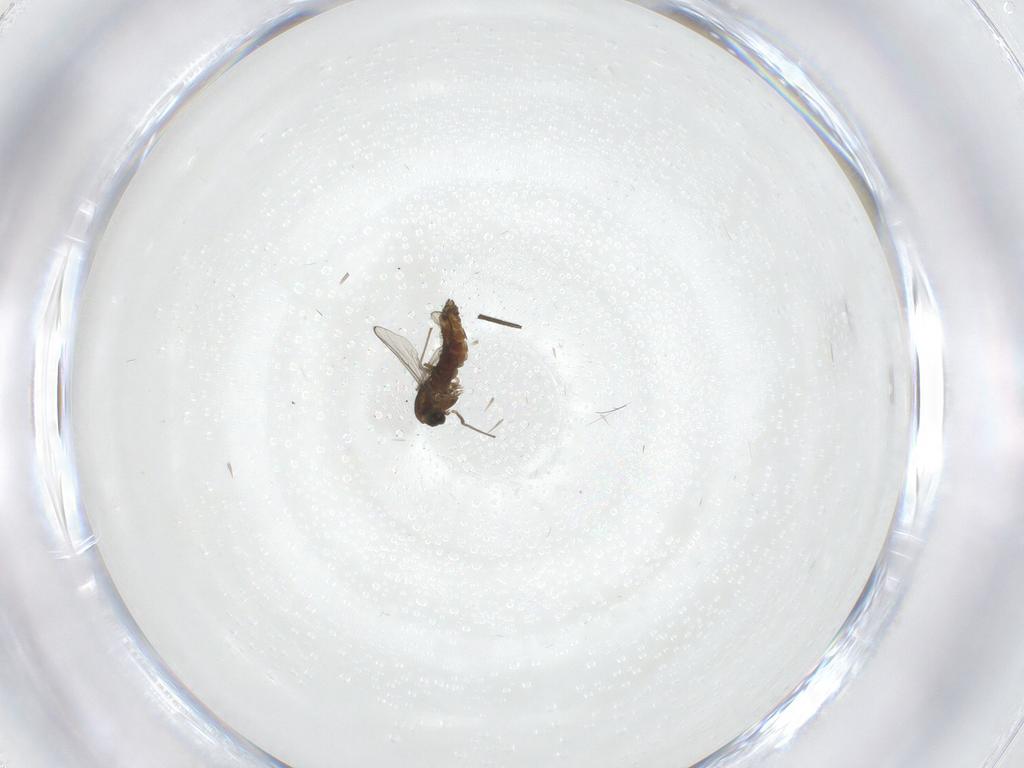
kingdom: Animalia
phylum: Arthropoda
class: Insecta
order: Diptera
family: Chironomidae
